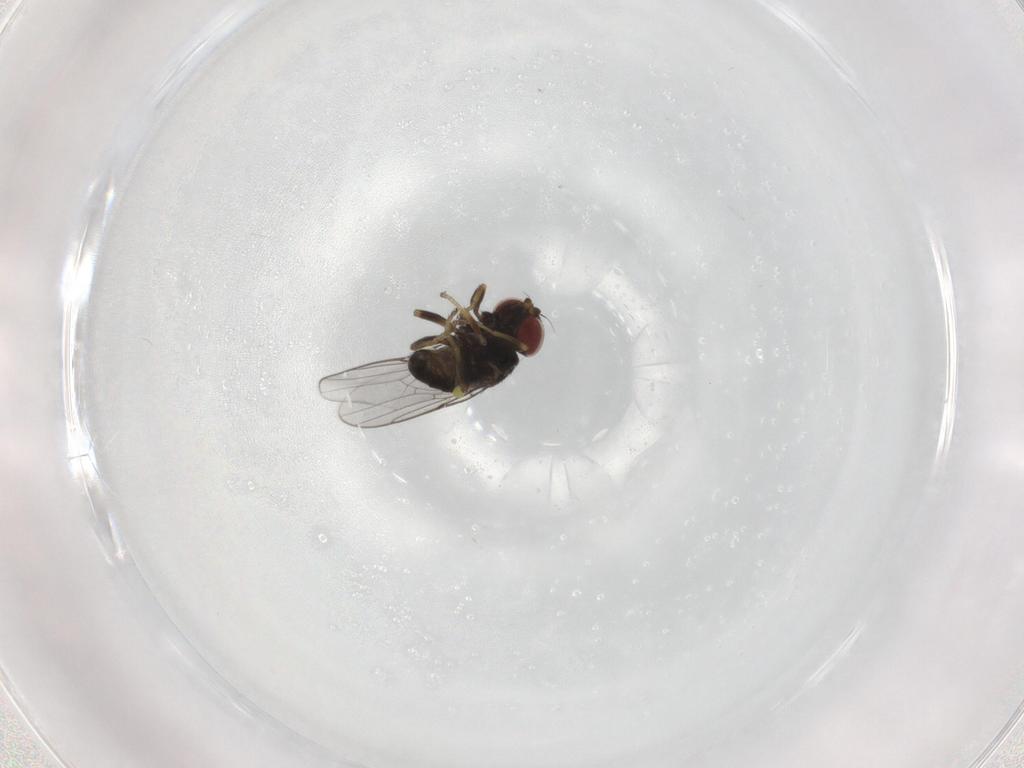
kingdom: Animalia
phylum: Arthropoda
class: Insecta
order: Diptera
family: Chloropidae
